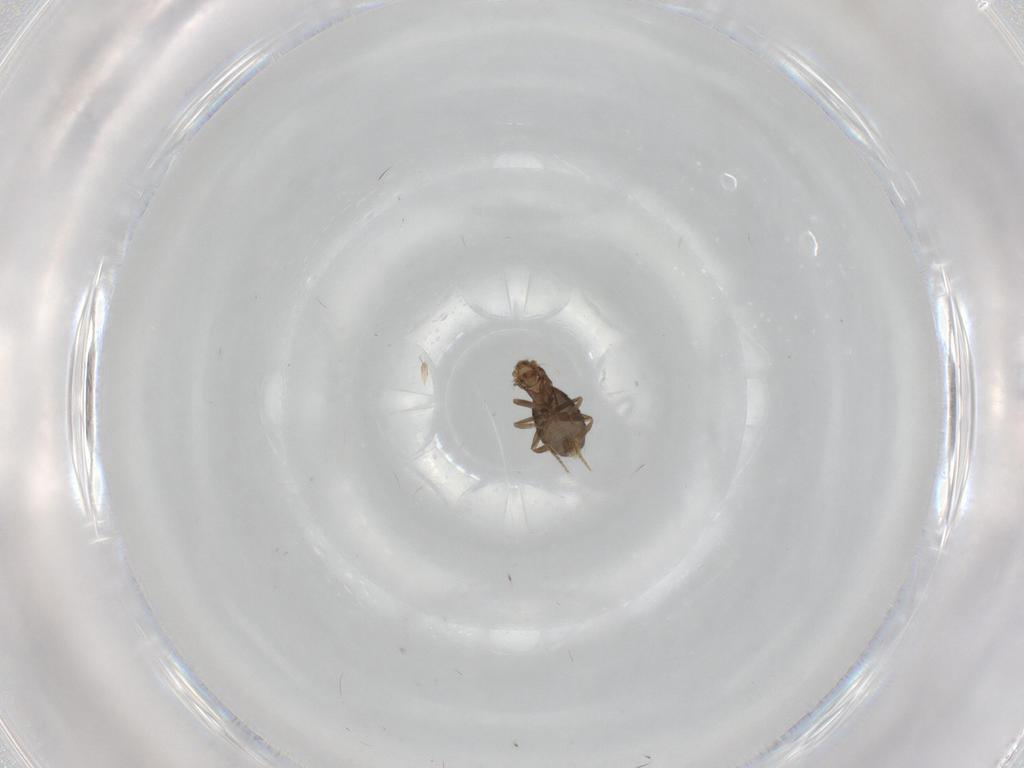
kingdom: Animalia
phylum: Arthropoda
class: Insecta
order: Diptera
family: Phoridae
